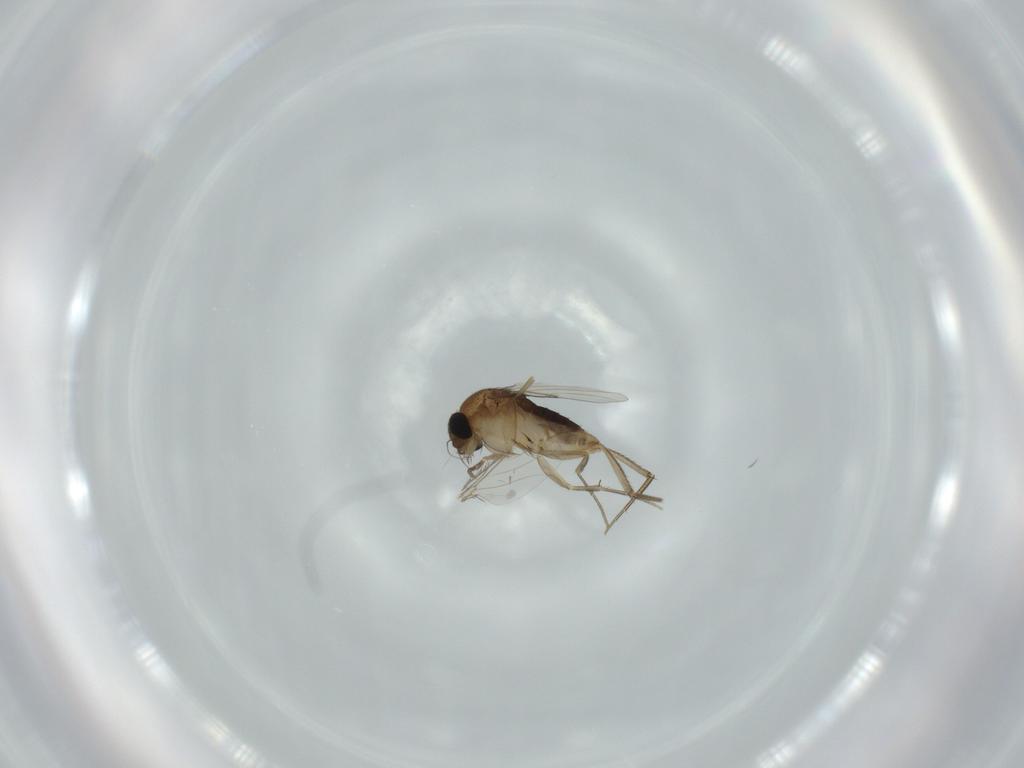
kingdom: Animalia
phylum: Arthropoda
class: Insecta
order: Diptera
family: Phoridae
